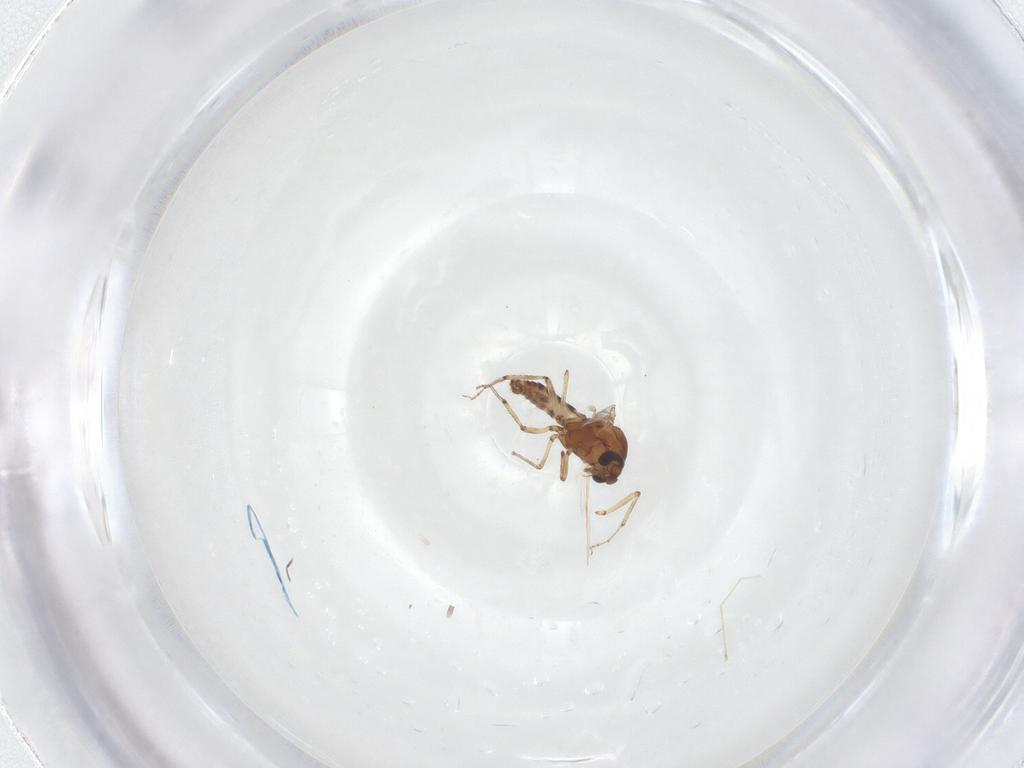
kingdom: Animalia
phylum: Arthropoda
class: Insecta
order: Diptera
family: Ceratopogonidae
